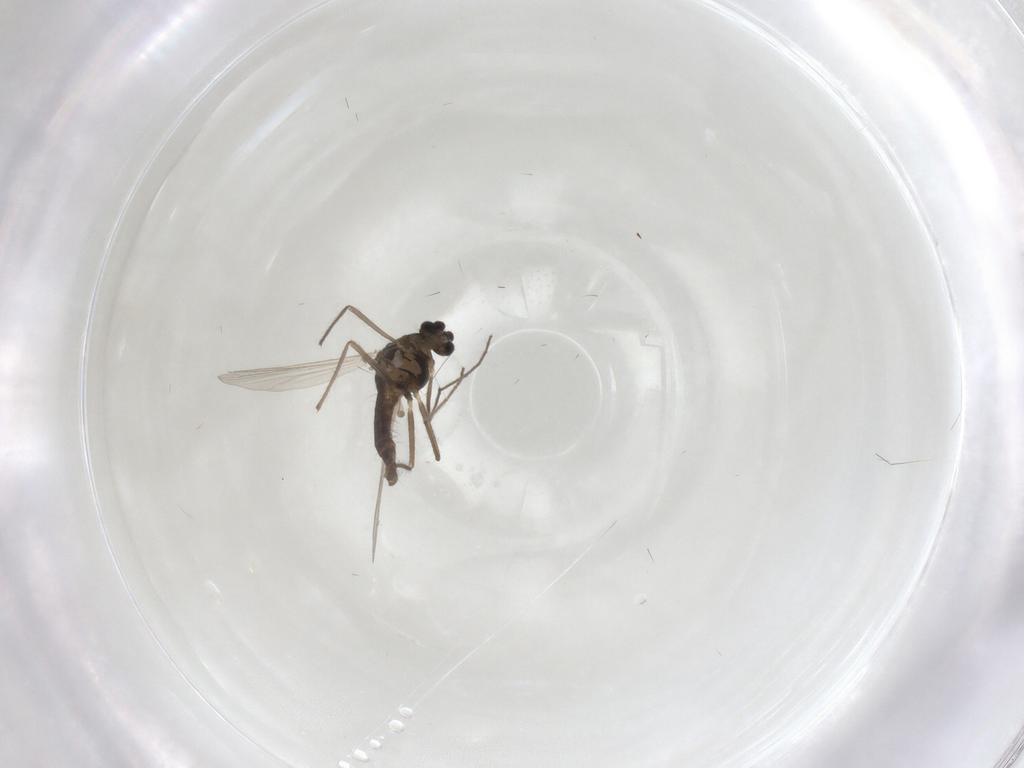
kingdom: Animalia
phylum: Arthropoda
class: Insecta
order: Diptera
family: Chironomidae
